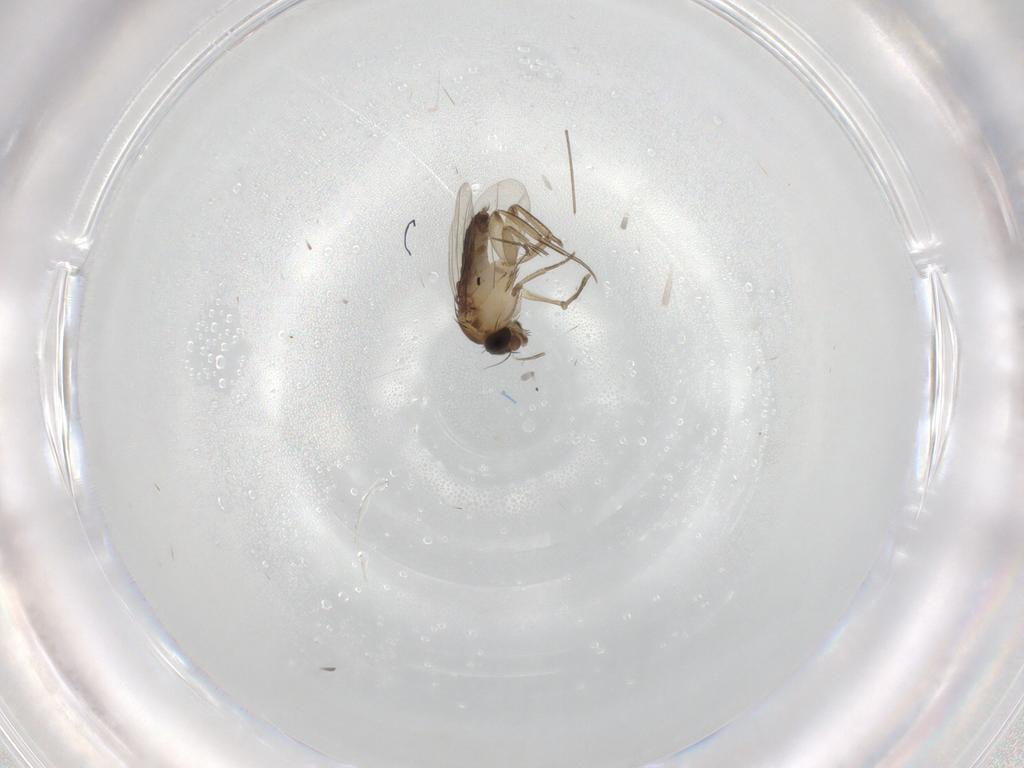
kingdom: Animalia
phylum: Arthropoda
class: Insecta
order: Diptera
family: Phoridae
